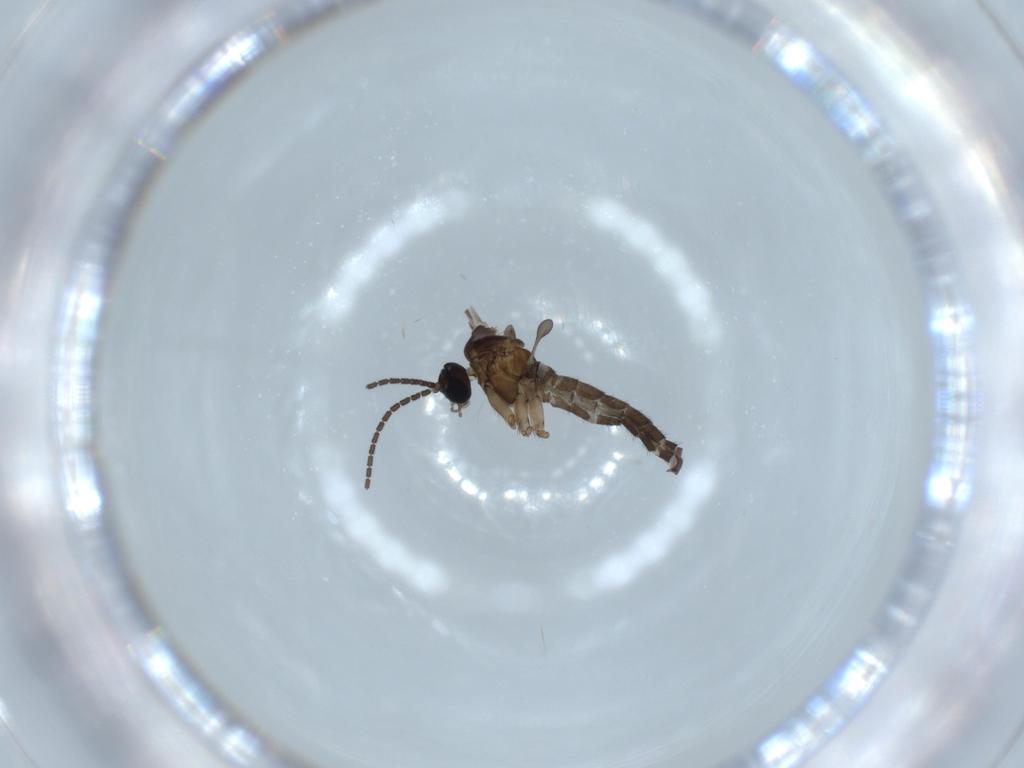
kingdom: Animalia
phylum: Arthropoda
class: Insecta
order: Diptera
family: Sciaridae
